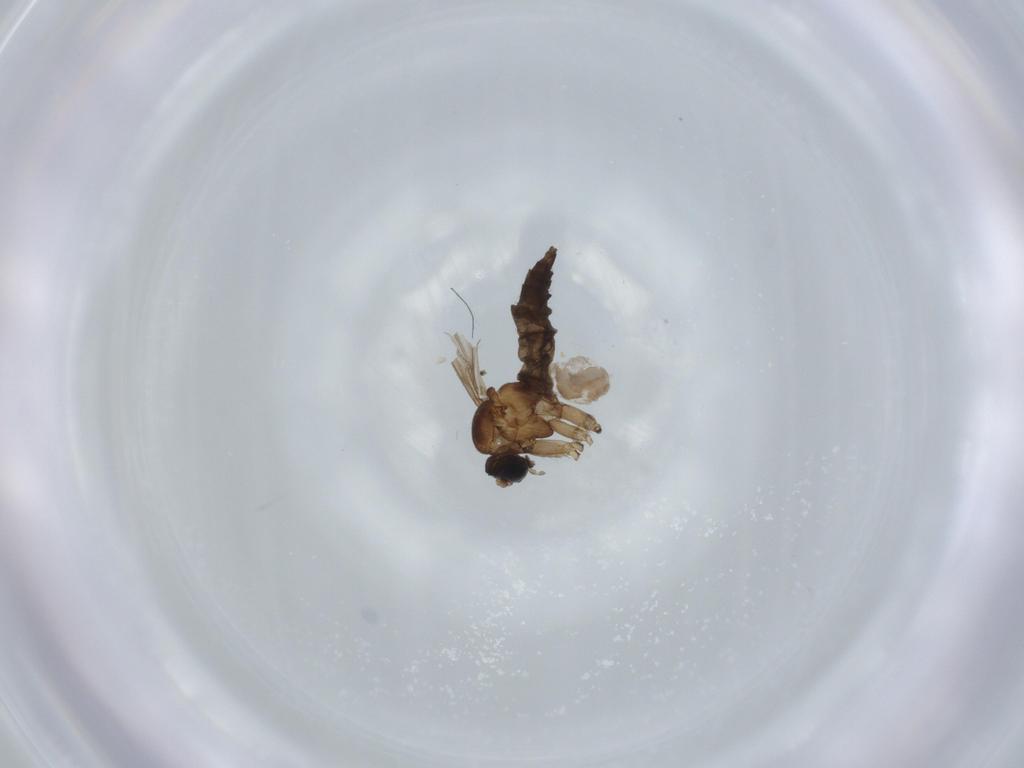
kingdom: Animalia
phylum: Arthropoda
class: Insecta
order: Diptera
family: Sciaridae
